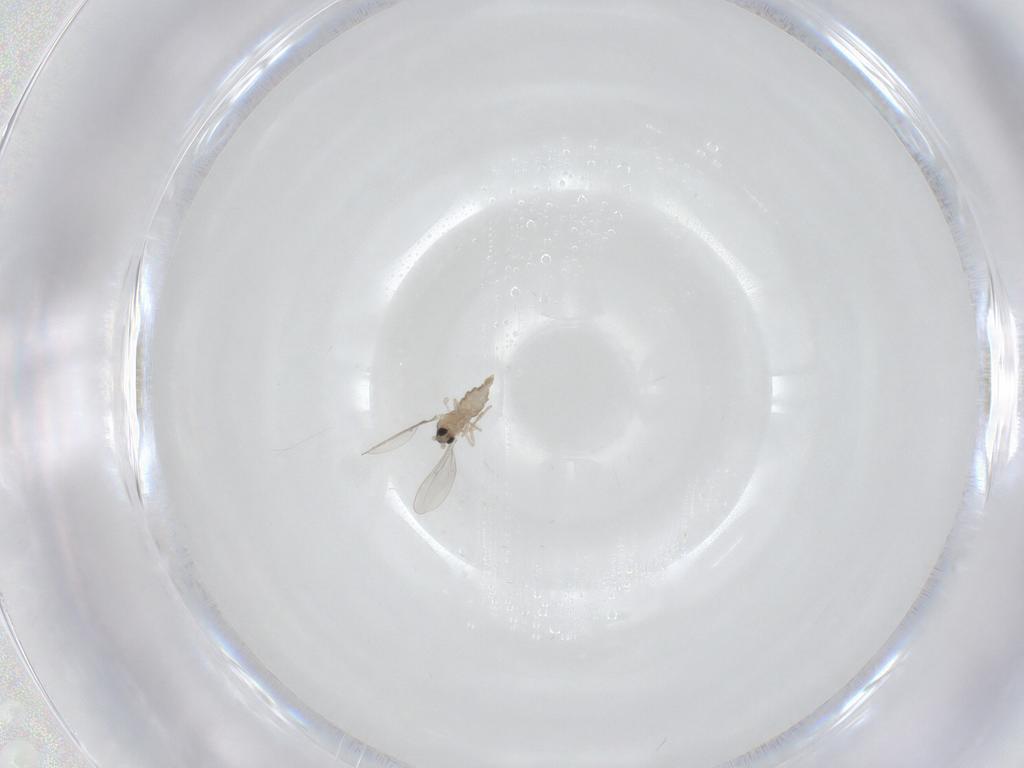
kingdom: Animalia
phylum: Arthropoda
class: Insecta
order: Diptera
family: Cecidomyiidae
